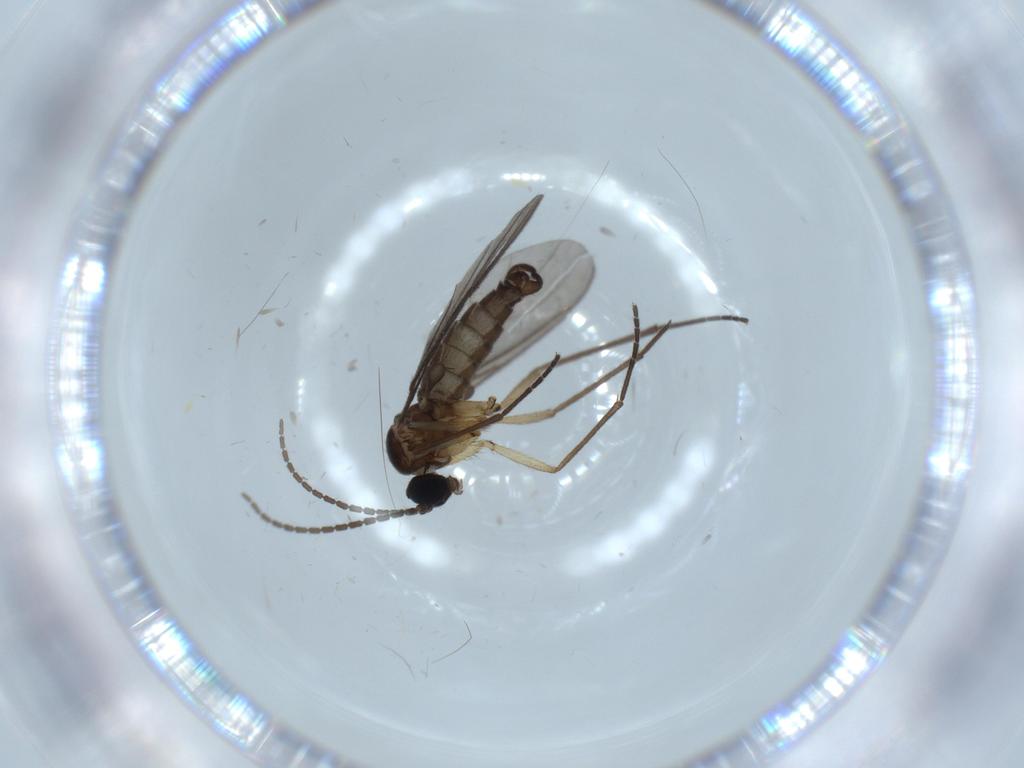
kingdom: Animalia
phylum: Arthropoda
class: Insecta
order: Diptera
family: Sciaridae
